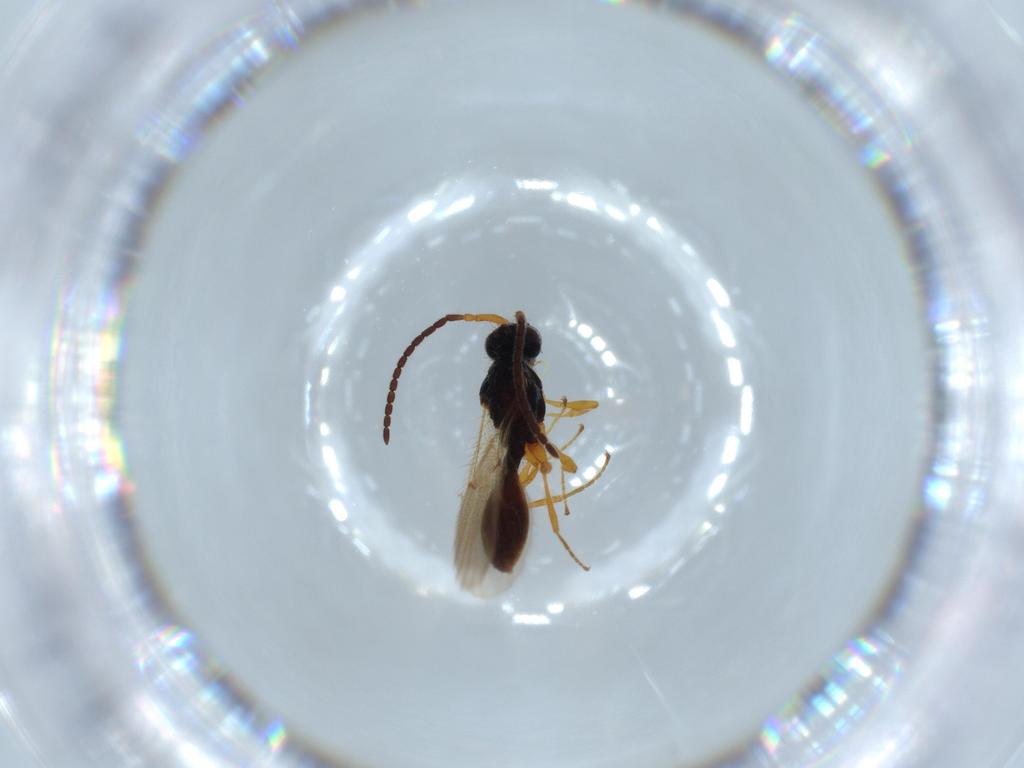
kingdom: Animalia
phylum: Arthropoda
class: Insecta
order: Hymenoptera
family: Diapriidae
